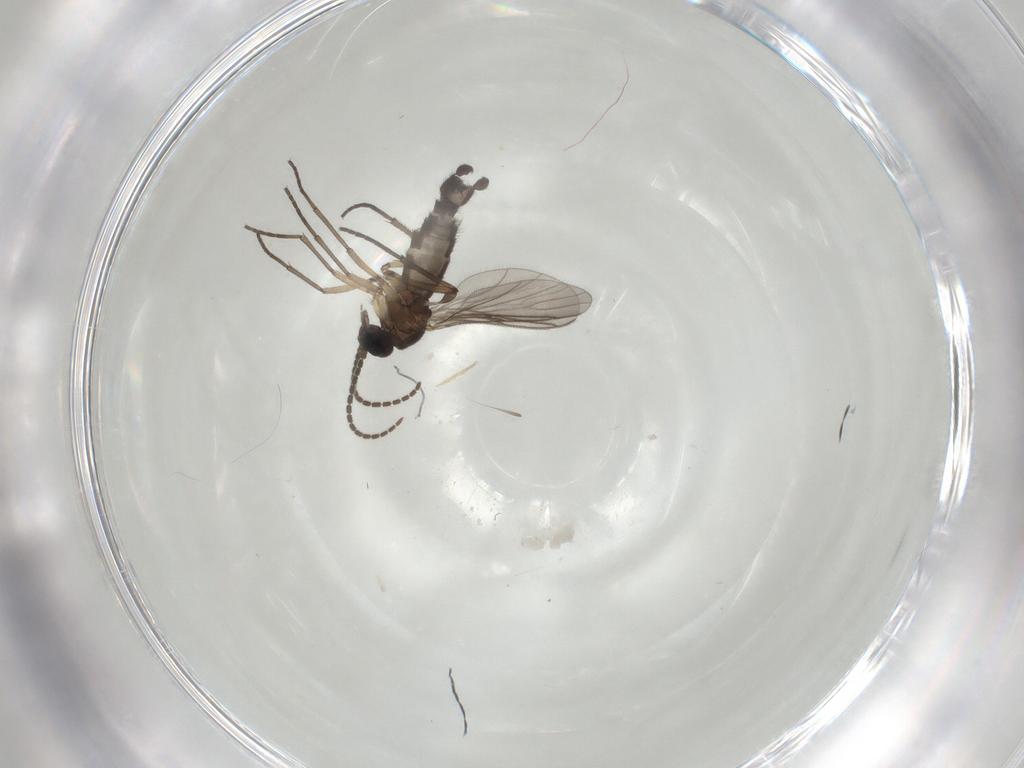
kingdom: Animalia
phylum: Arthropoda
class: Insecta
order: Diptera
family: Sciaridae
